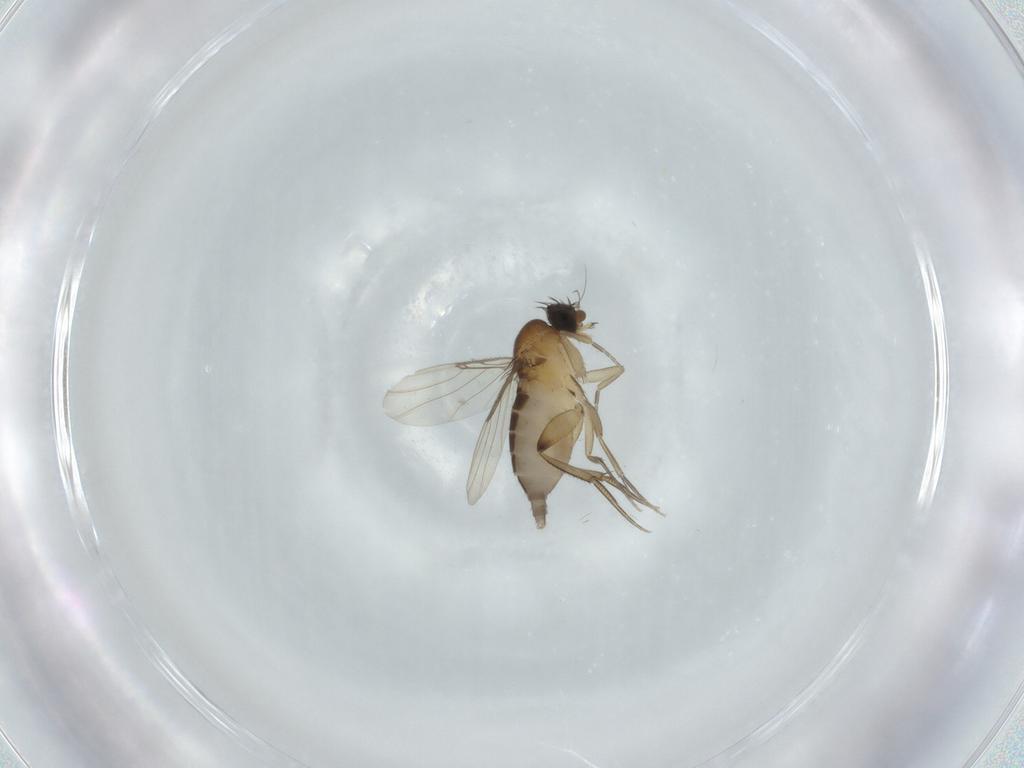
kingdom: Animalia
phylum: Arthropoda
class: Insecta
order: Diptera
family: Phoridae
